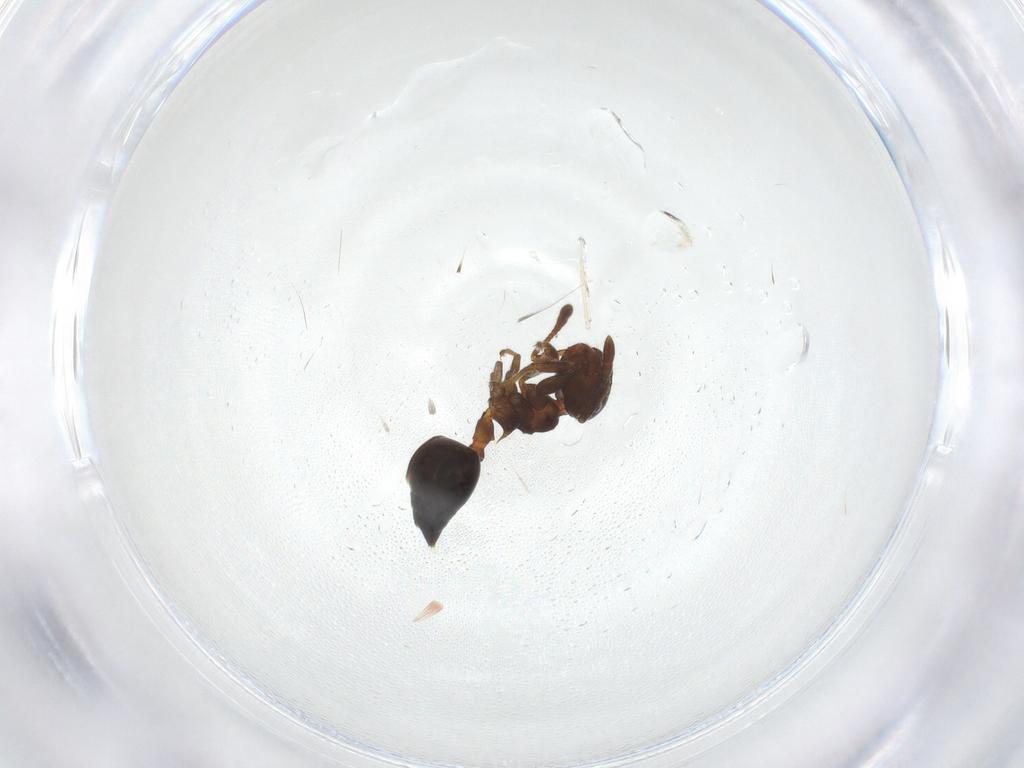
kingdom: Animalia
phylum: Arthropoda
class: Insecta
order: Hymenoptera
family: Formicidae
